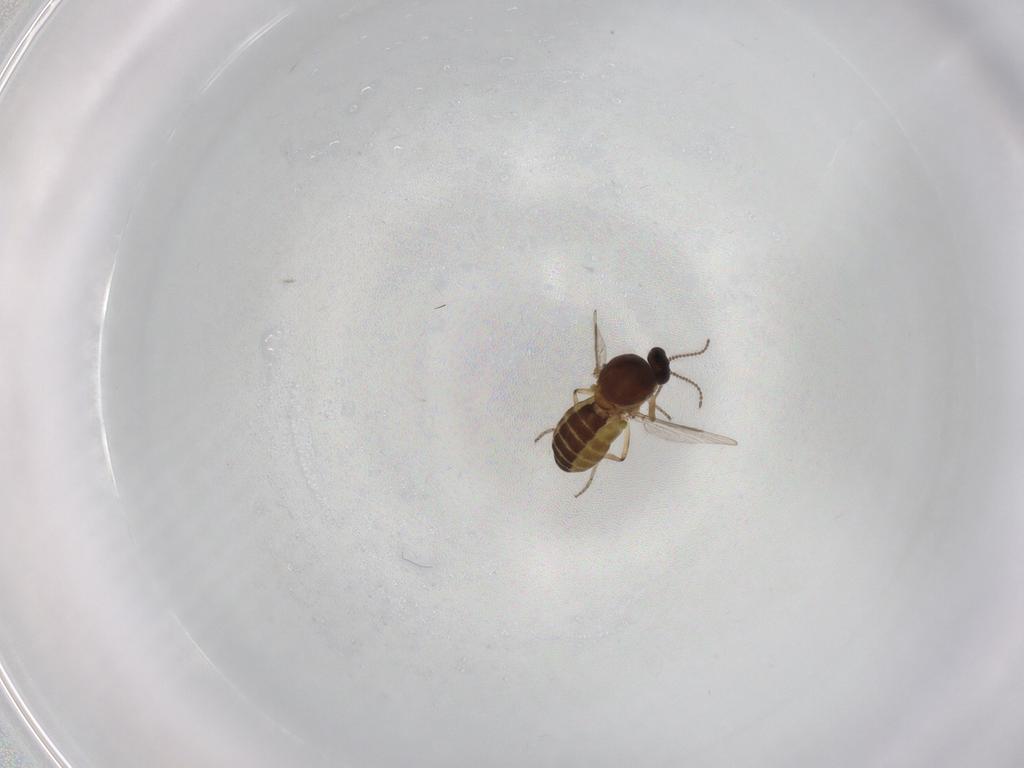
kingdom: Animalia
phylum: Arthropoda
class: Insecta
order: Diptera
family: Ceratopogonidae
